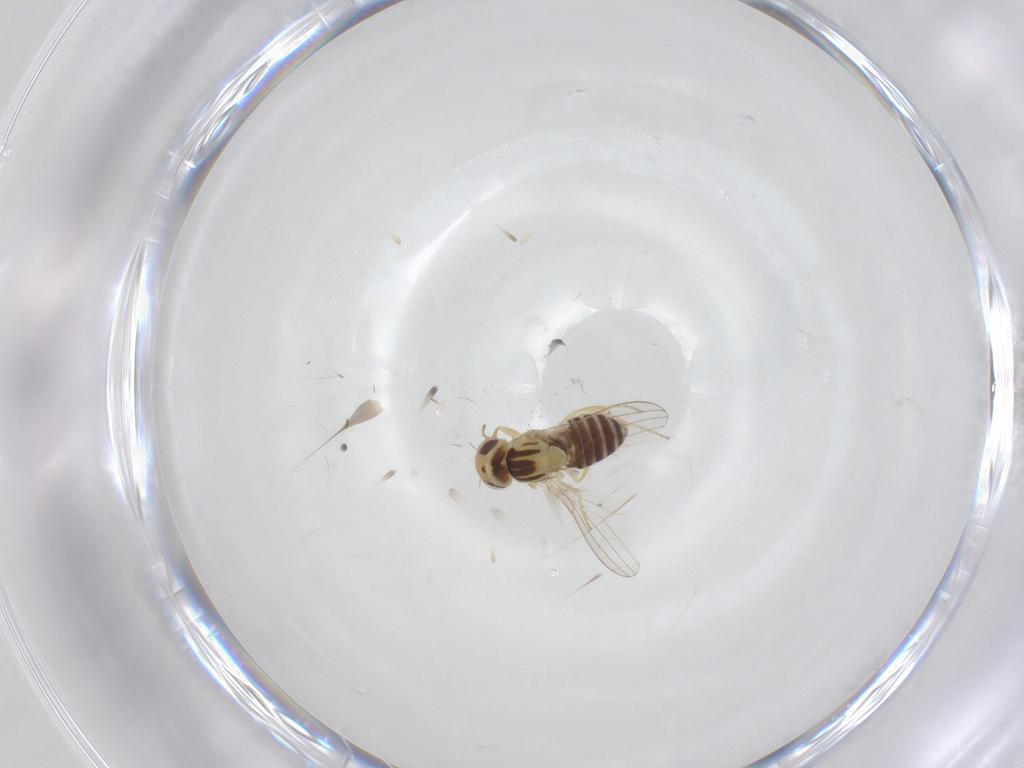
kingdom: Animalia
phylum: Arthropoda
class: Insecta
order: Diptera
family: Chyromyidae
